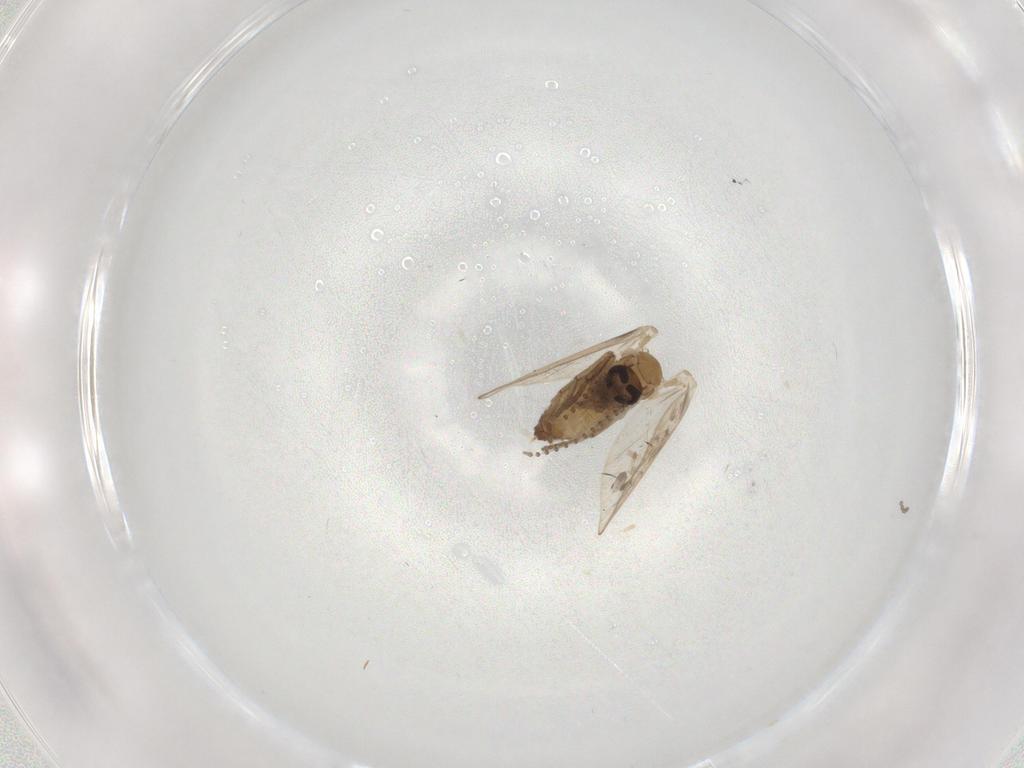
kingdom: Animalia
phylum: Arthropoda
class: Insecta
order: Diptera
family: Psychodidae
